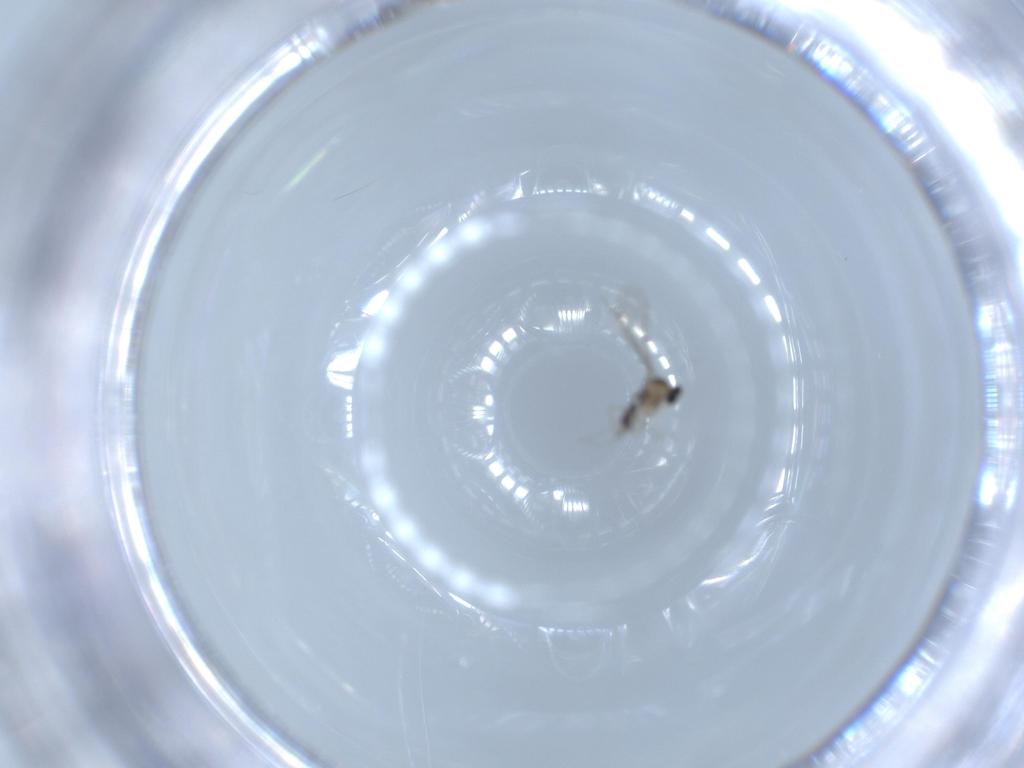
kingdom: Animalia
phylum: Arthropoda
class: Insecta
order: Diptera
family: Cecidomyiidae
